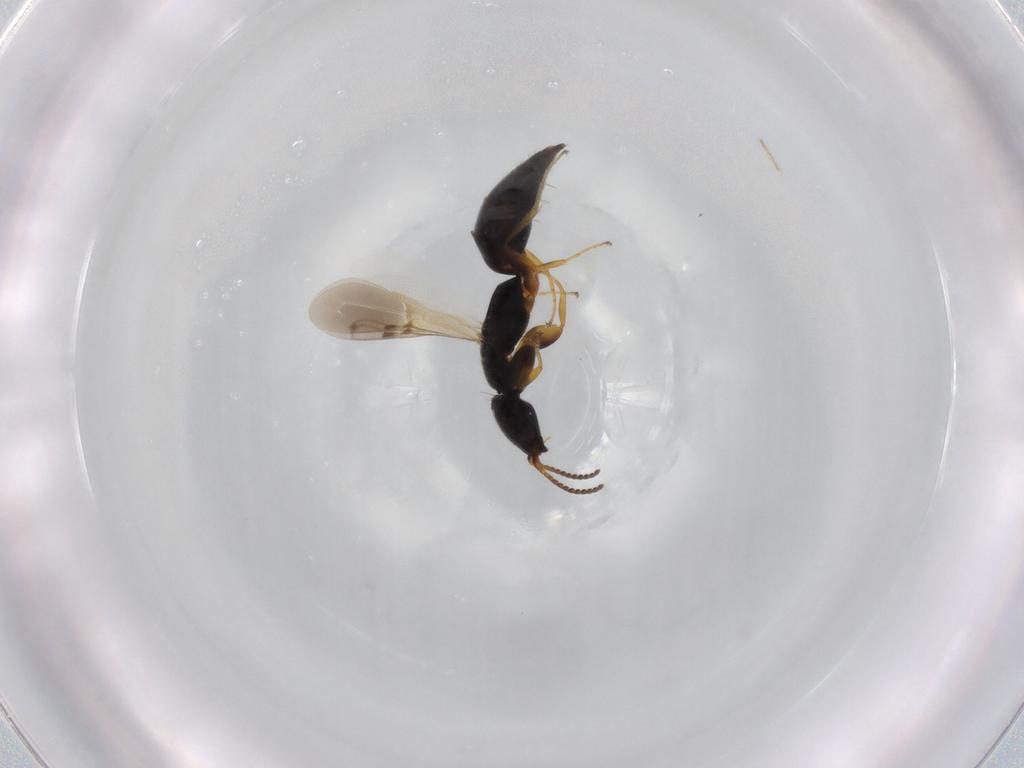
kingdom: Animalia
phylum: Arthropoda
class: Insecta
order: Hymenoptera
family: Bethylidae
